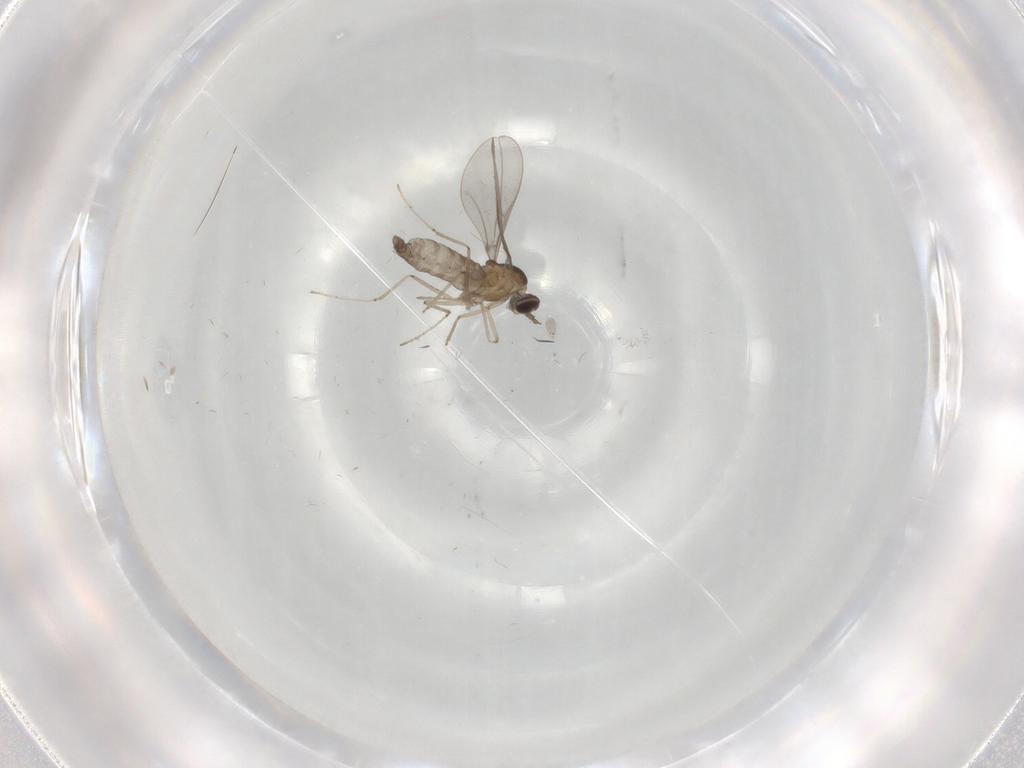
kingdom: Animalia
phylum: Arthropoda
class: Insecta
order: Diptera
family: Cecidomyiidae
